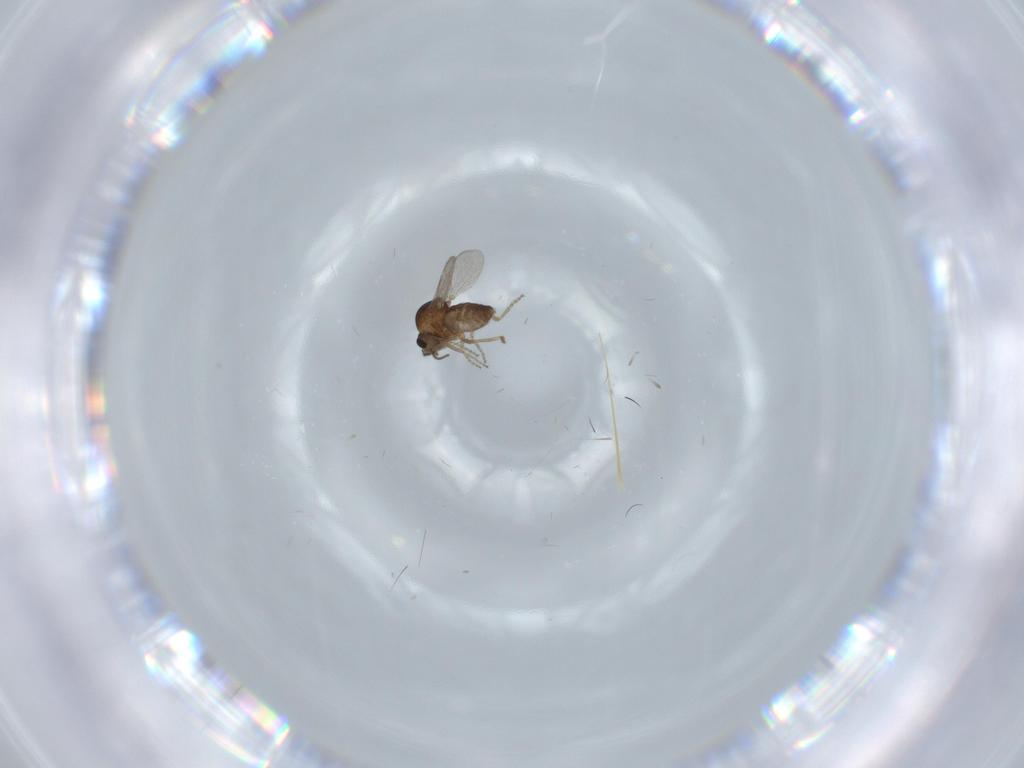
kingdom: Animalia
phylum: Arthropoda
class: Insecta
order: Diptera
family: Ceratopogonidae
